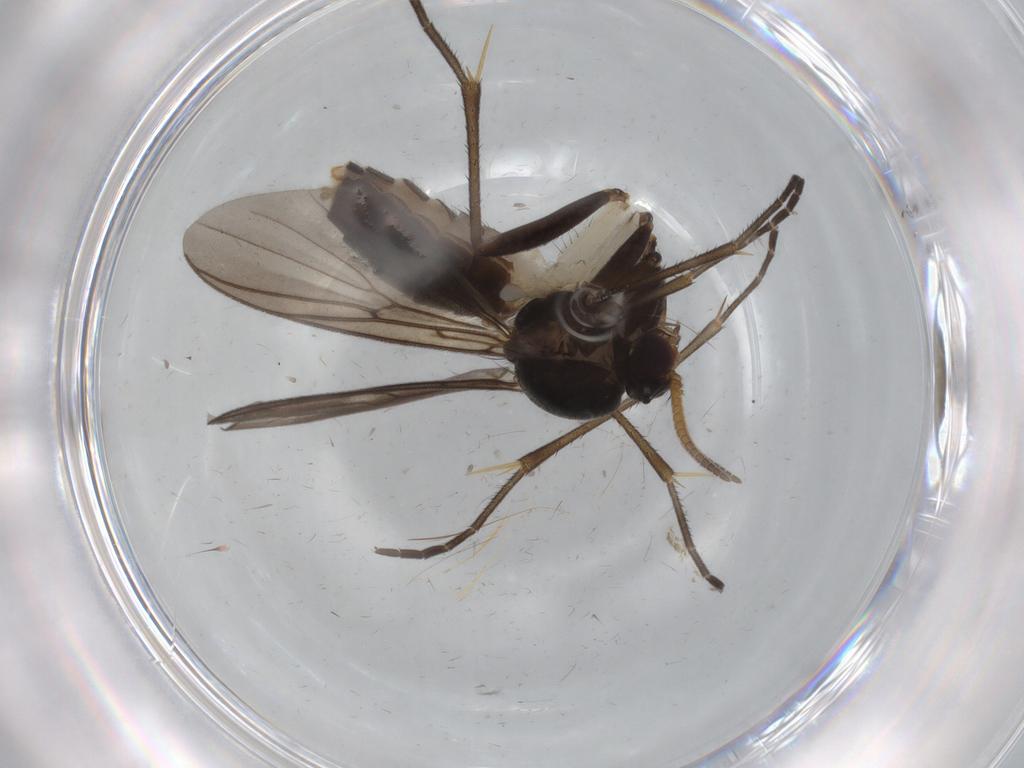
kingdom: Animalia
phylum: Arthropoda
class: Insecta
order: Diptera
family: Mycetophilidae
